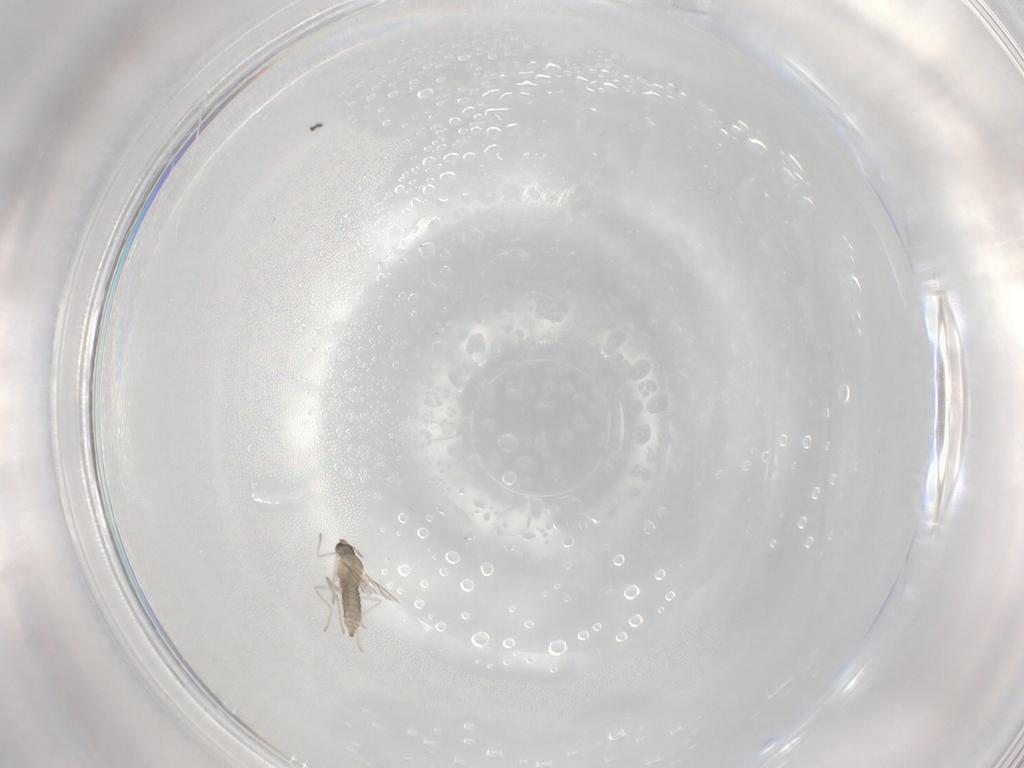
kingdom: Animalia
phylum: Arthropoda
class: Insecta
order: Diptera
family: Cecidomyiidae
